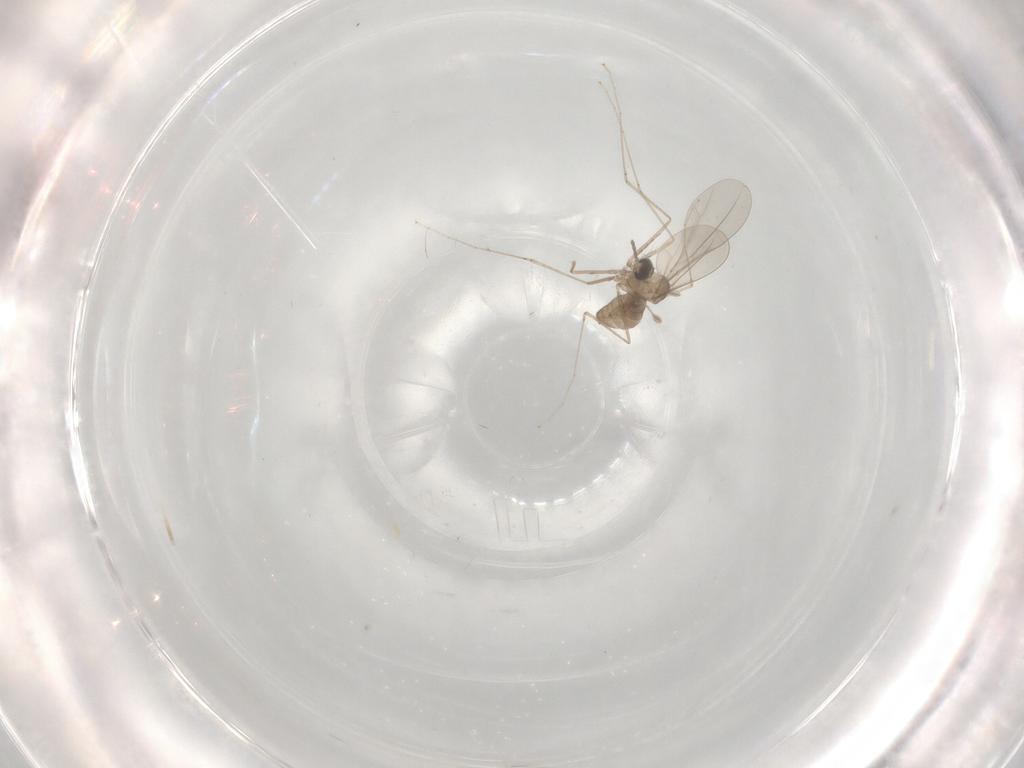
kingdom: Animalia
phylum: Arthropoda
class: Insecta
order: Diptera
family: Cecidomyiidae
